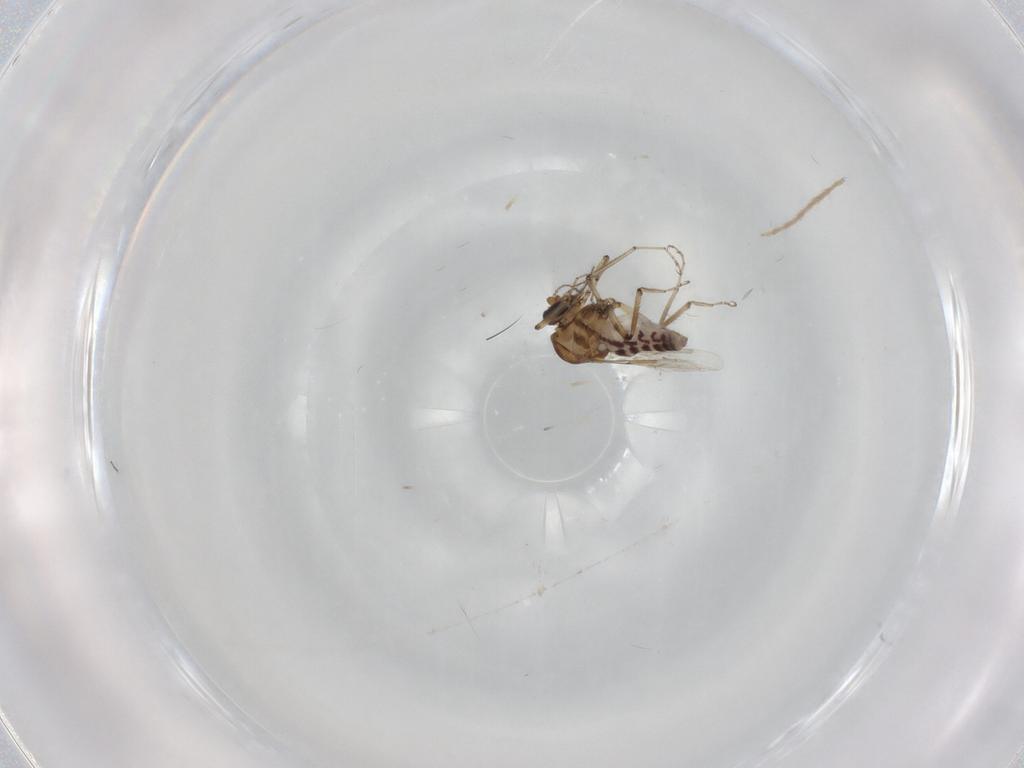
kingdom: Animalia
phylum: Arthropoda
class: Insecta
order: Diptera
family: Ceratopogonidae
